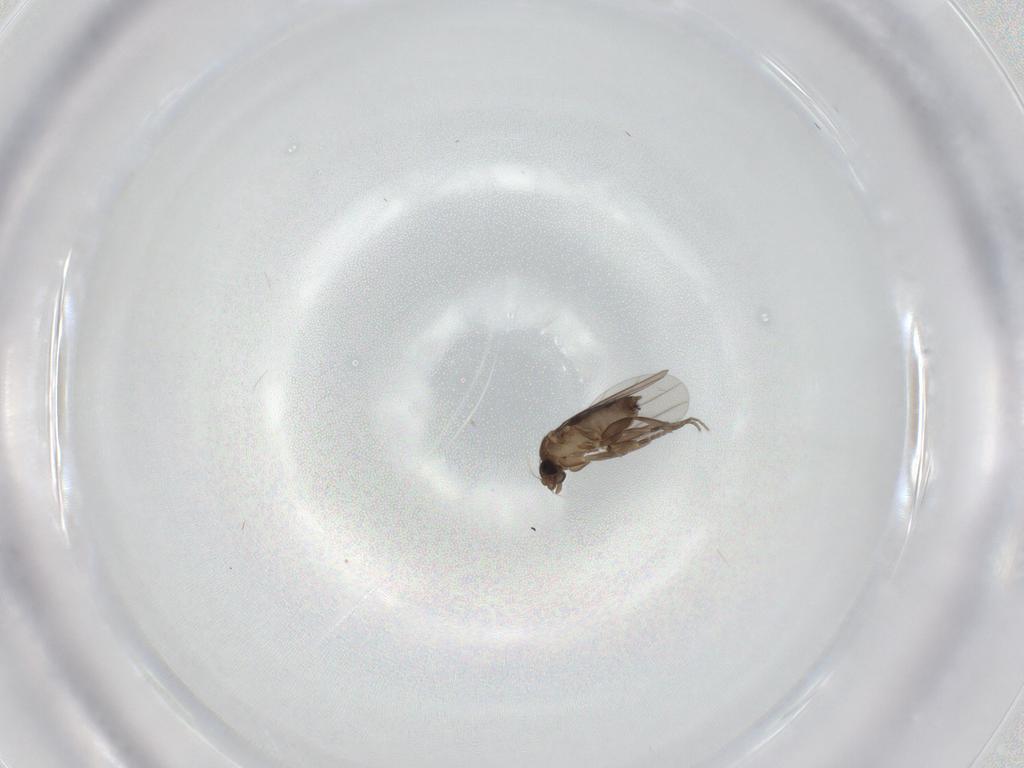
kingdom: Animalia
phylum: Arthropoda
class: Insecta
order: Diptera
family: Phoridae
